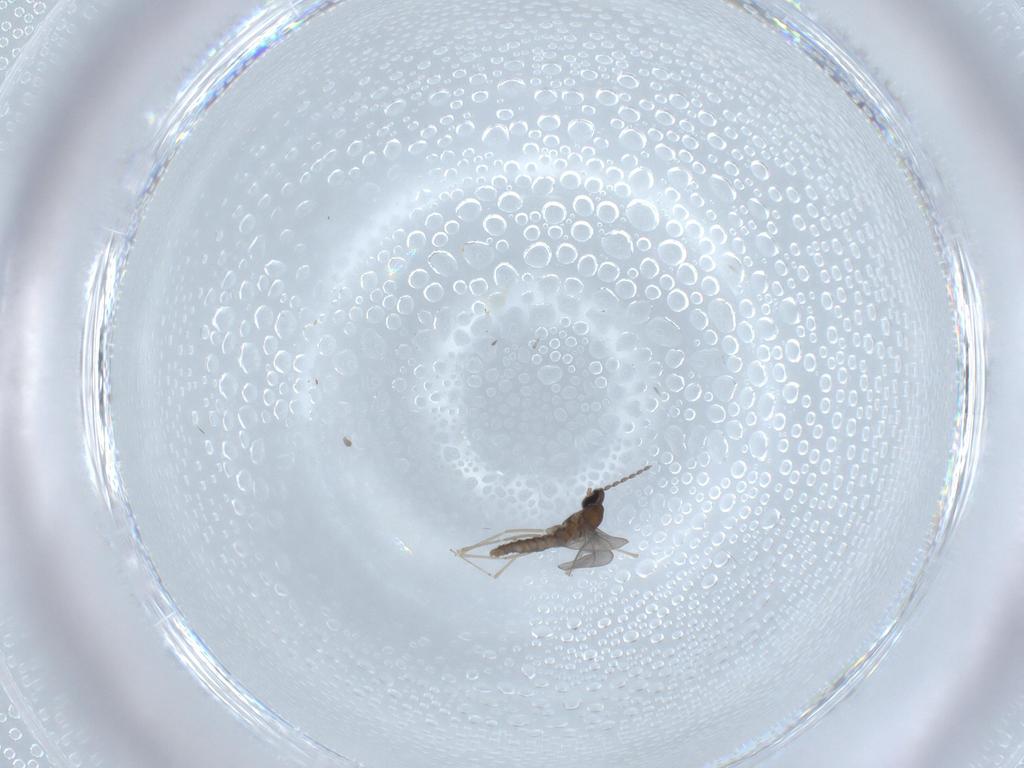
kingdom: Animalia
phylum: Arthropoda
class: Insecta
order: Diptera
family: Cecidomyiidae
